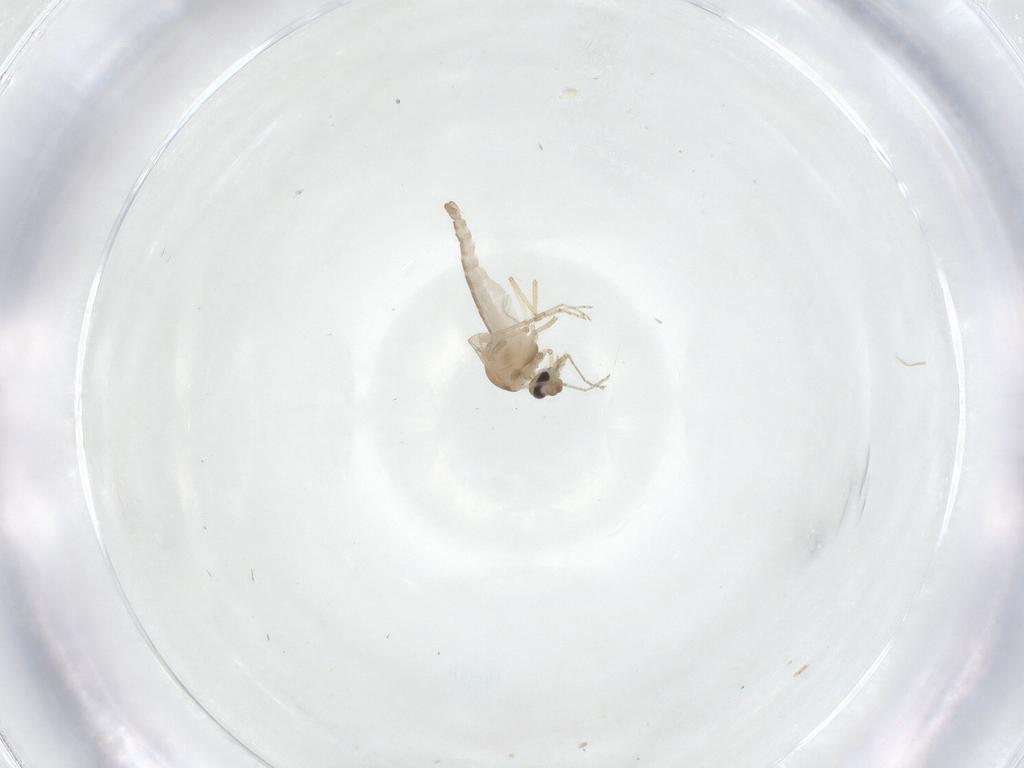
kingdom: Animalia
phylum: Arthropoda
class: Insecta
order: Diptera
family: Ceratopogonidae
